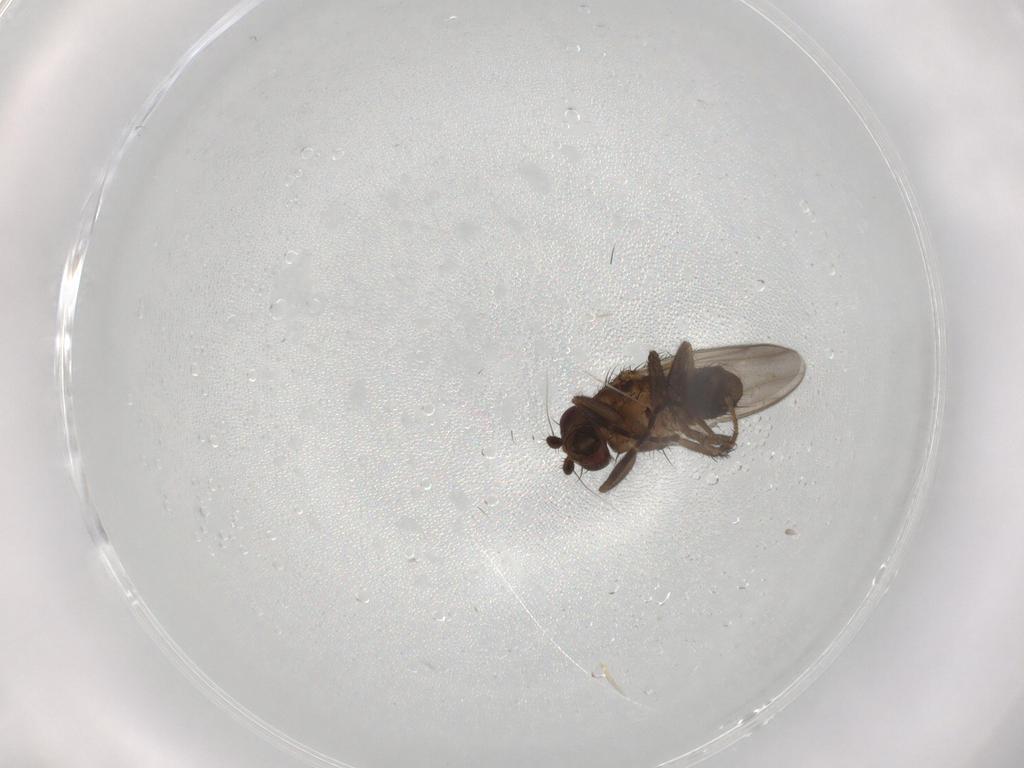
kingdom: Animalia
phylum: Arthropoda
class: Insecta
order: Diptera
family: Cecidomyiidae
